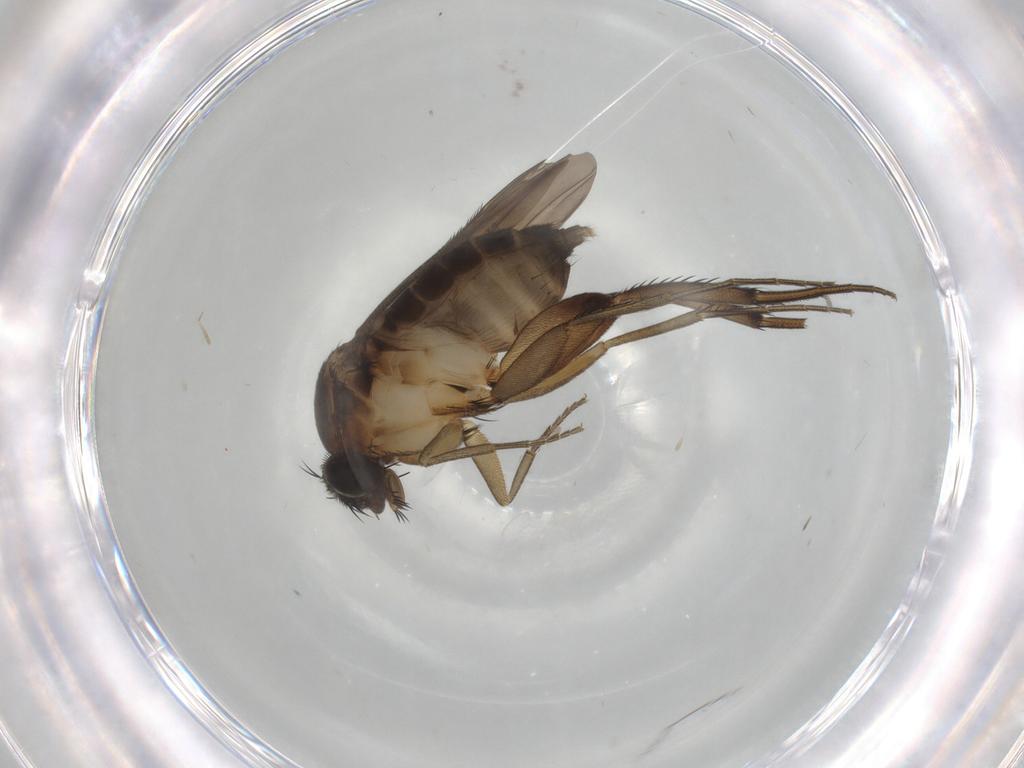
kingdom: Animalia
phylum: Arthropoda
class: Insecta
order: Diptera
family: Phoridae
